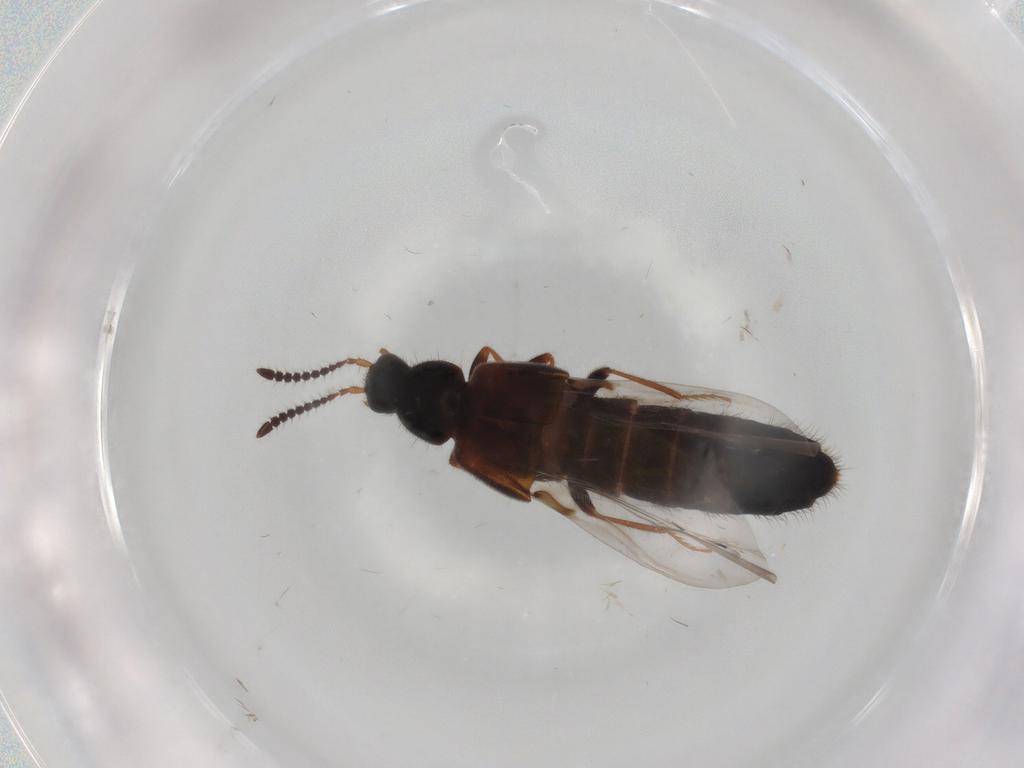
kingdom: Animalia
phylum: Arthropoda
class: Insecta
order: Coleoptera
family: Chrysomelidae
